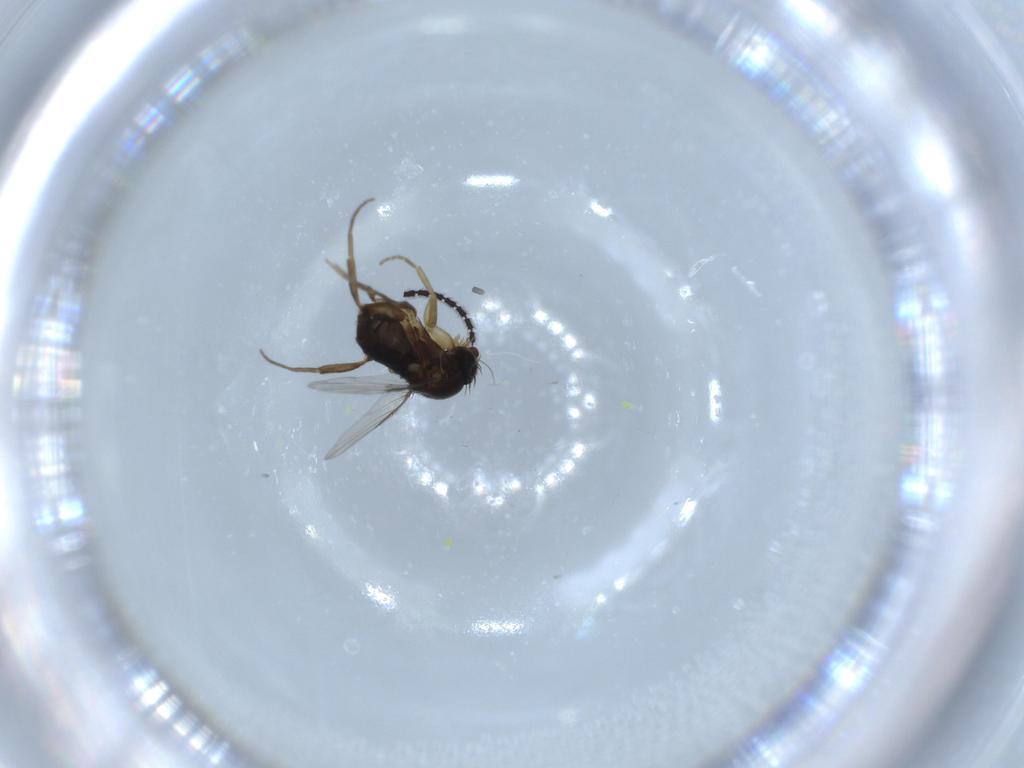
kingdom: Animalia
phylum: Arthropoda
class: Insecta
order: Diptera
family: Phoridae
